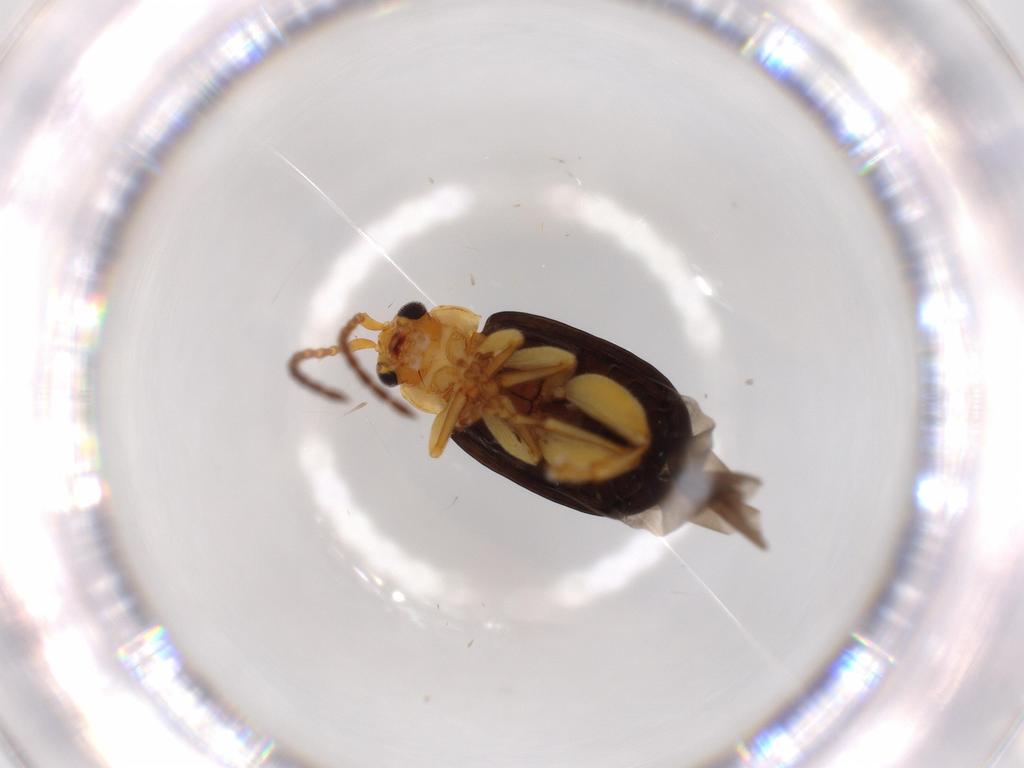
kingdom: Animalia
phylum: Arthropoda
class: Insecta
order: Coleoptera
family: Chrysomelidae
